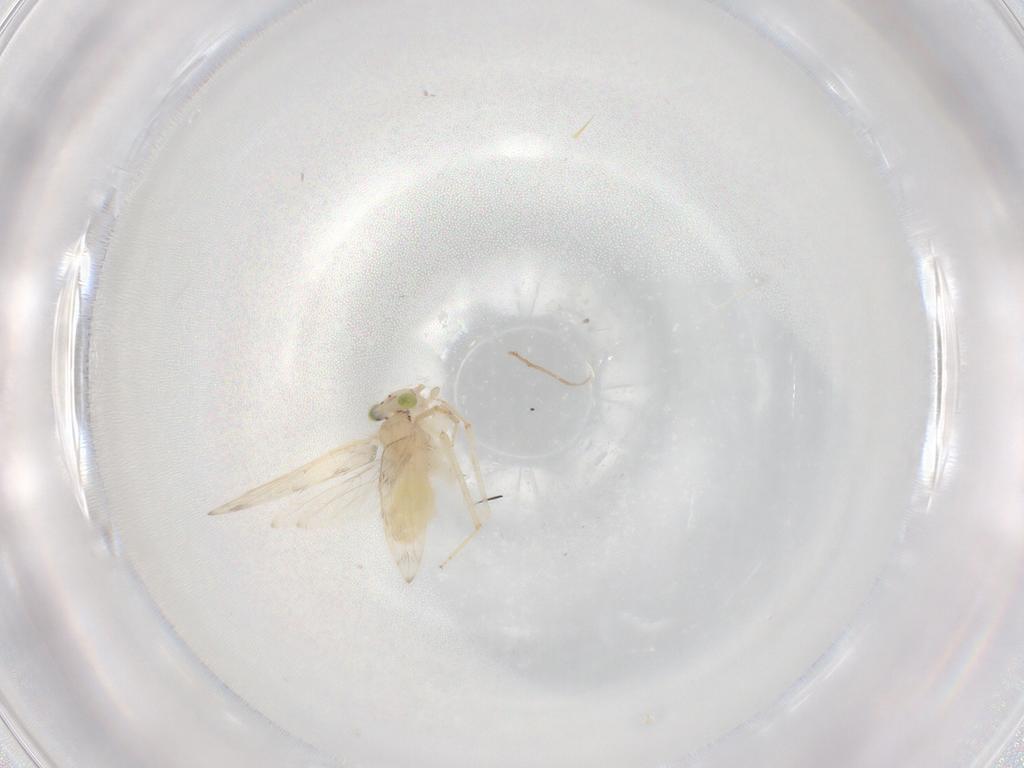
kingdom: Animalia
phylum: Arthropoda
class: Insecta
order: Psocodea
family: Lepidopsocidae
